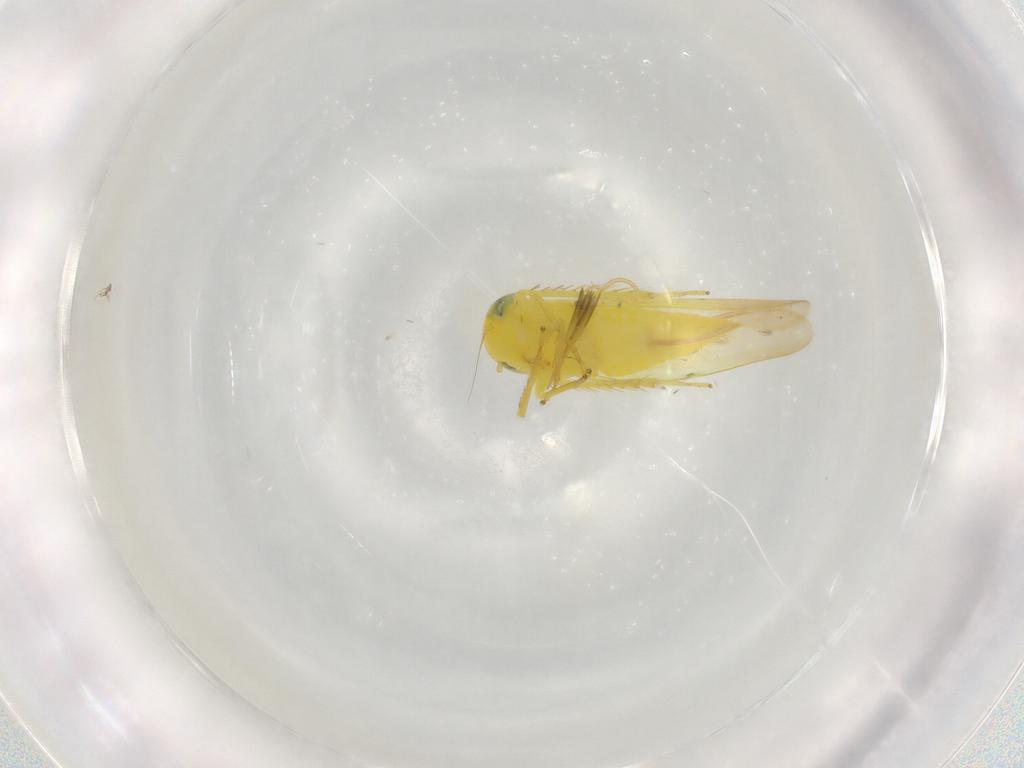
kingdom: Animalia
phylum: Arthropoda
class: Insecta
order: Hemiptera
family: Cicadellidae
